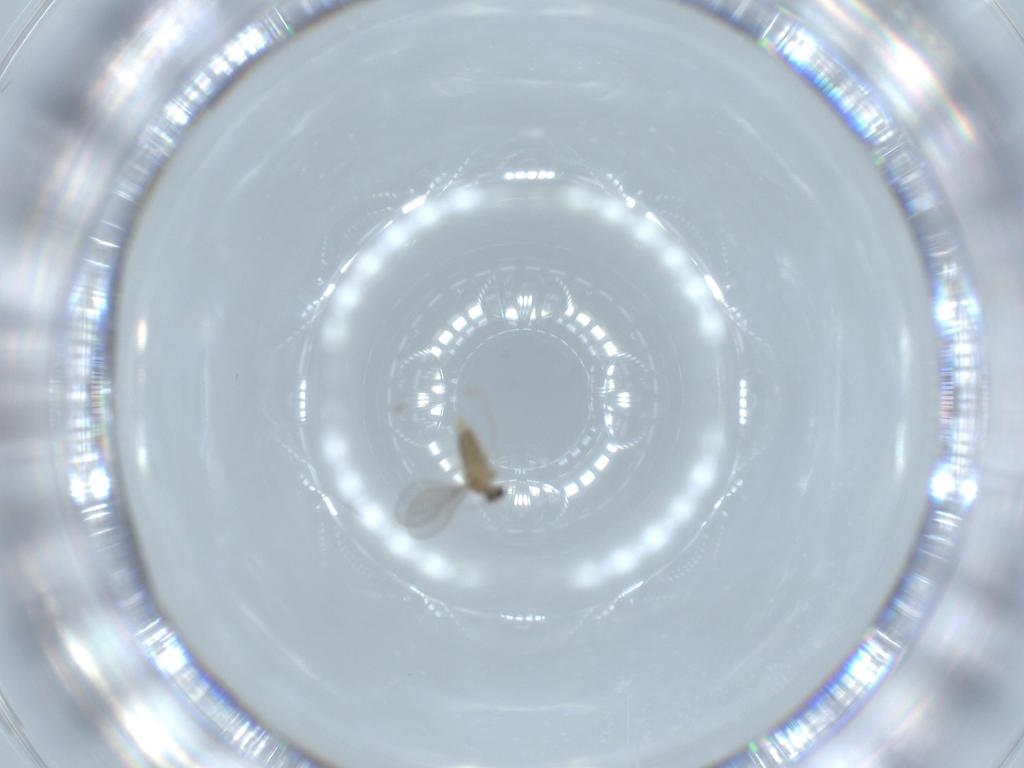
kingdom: Animalia
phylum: Arthropoda
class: Insecta
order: Diptera
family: Cecidomyiidae
